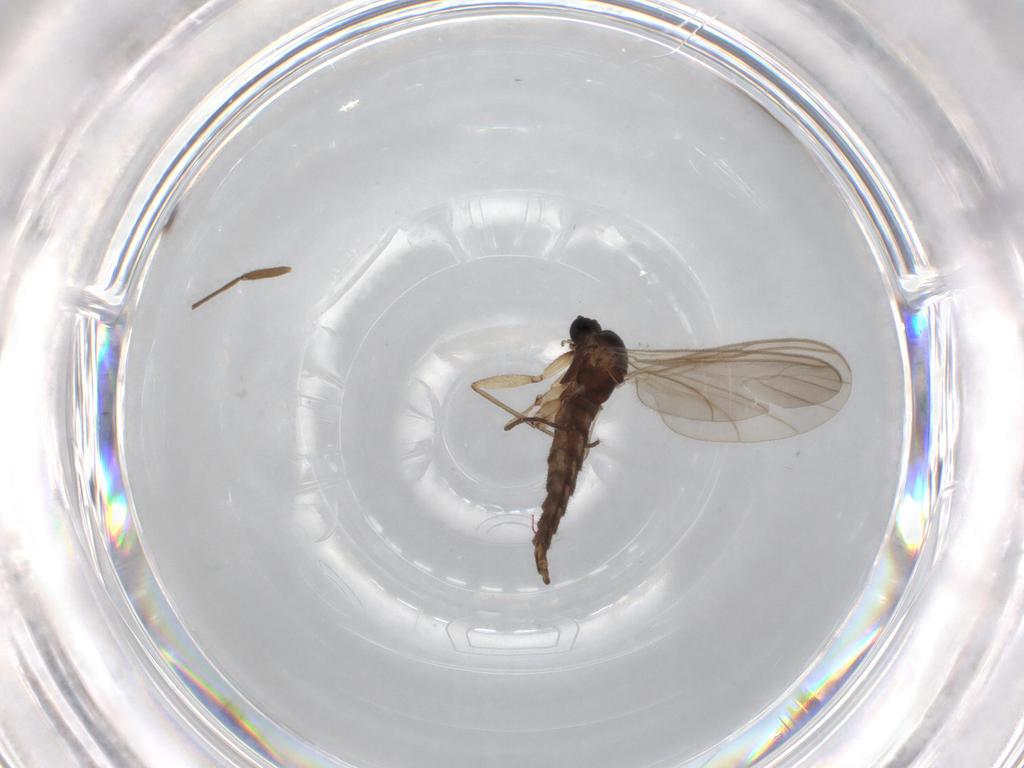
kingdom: Animalia
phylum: Arthropoda
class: Insecta
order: Diptera
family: Sciaridae
